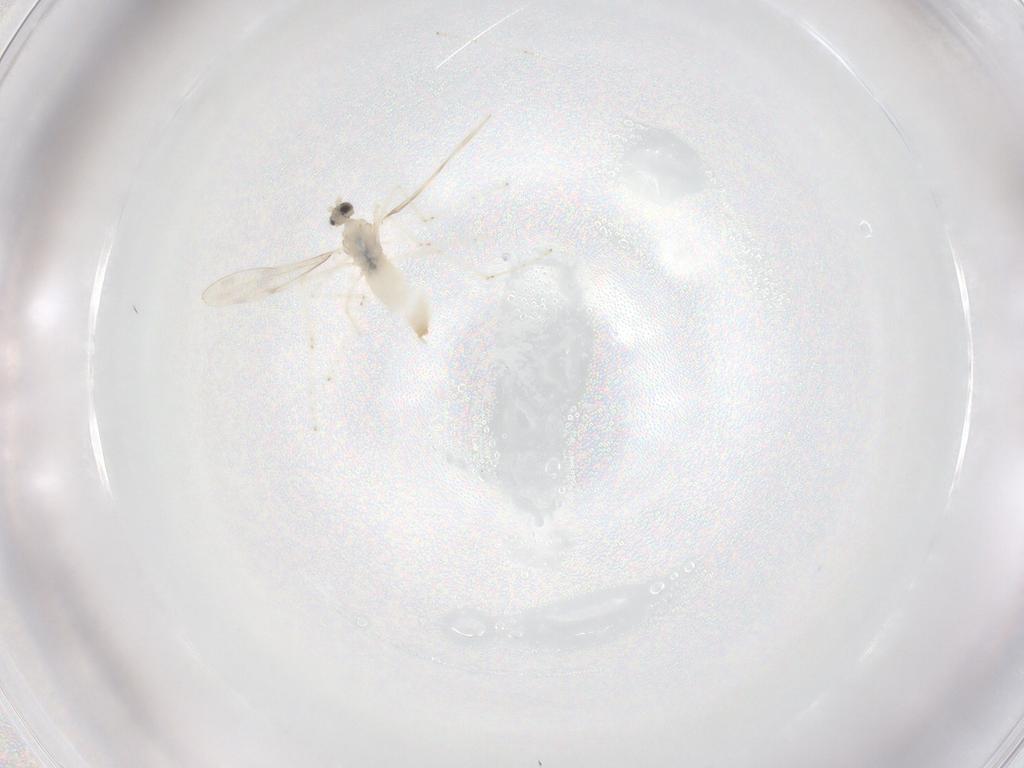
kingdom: Animalia
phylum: Arthropoda
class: Insecta
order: Diptera
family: Cecidomyiidae
